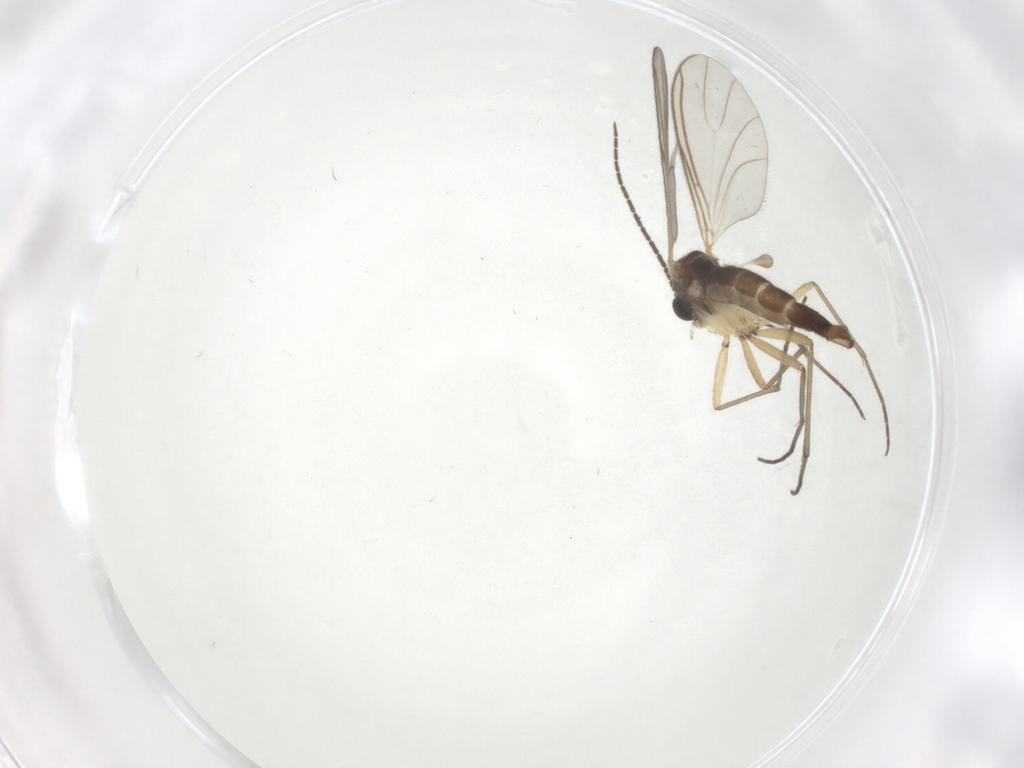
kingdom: Animalia
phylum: Arthropoda
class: Insecta
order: Diptera
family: Sciaridae
